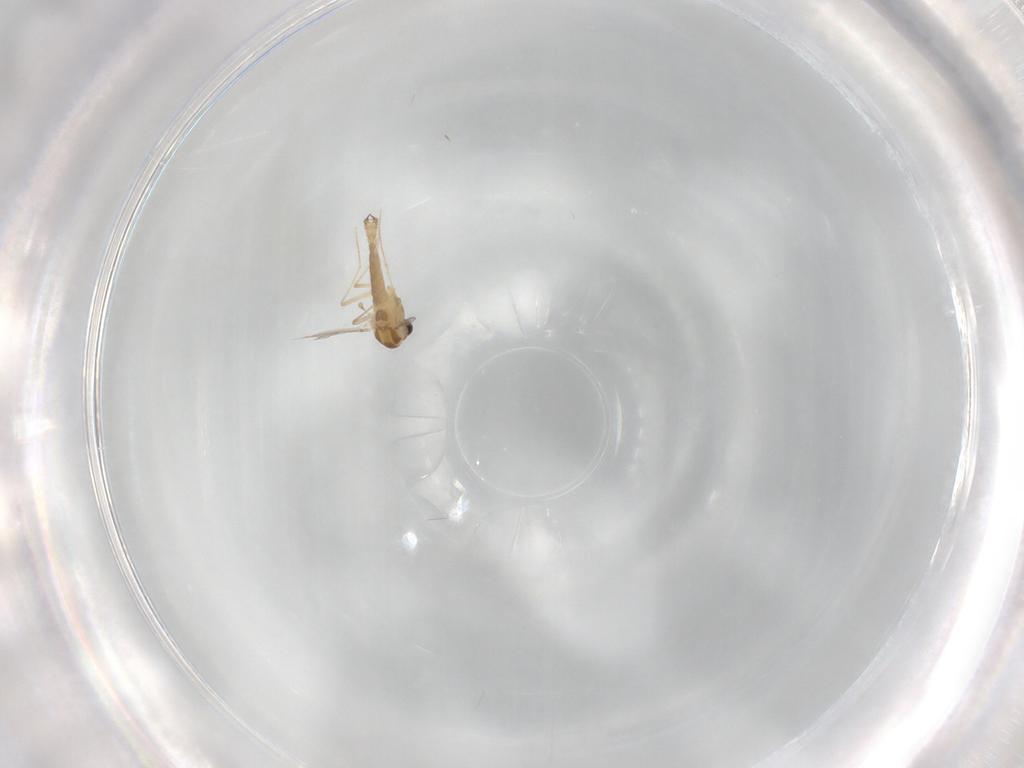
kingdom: Animalia
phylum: Arthropoda
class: Insecta
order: Diptera
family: Chironomidae
